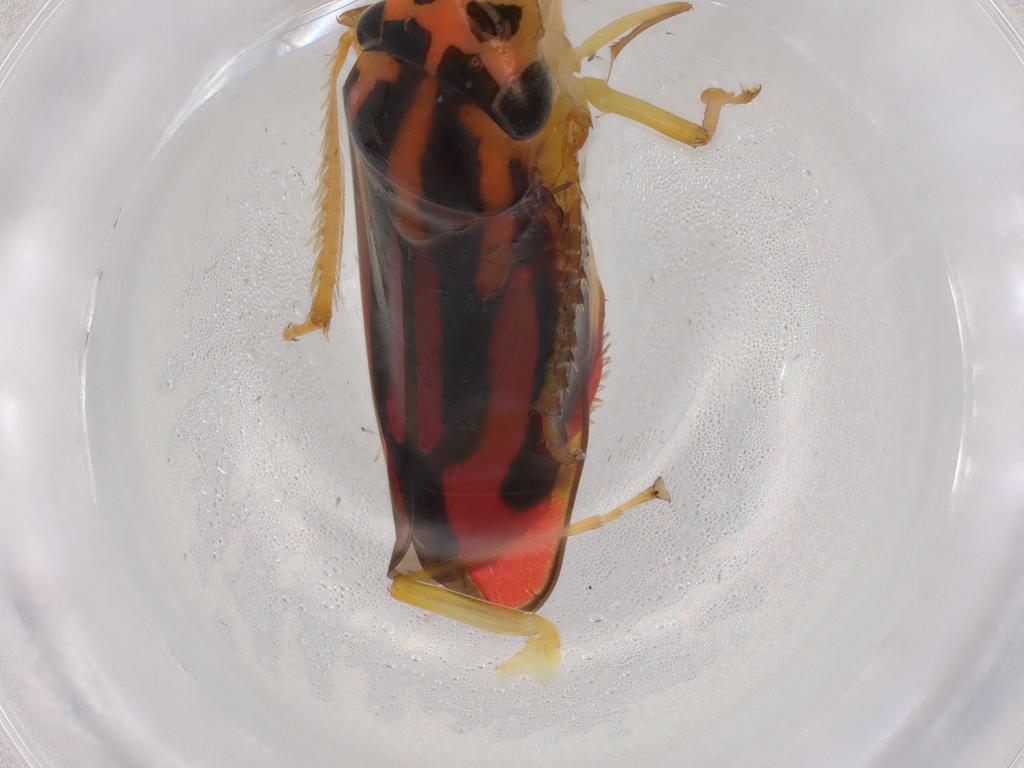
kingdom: Animalia
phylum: Arthropoda
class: Insecta
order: Hemiptera
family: Cicadellidae
